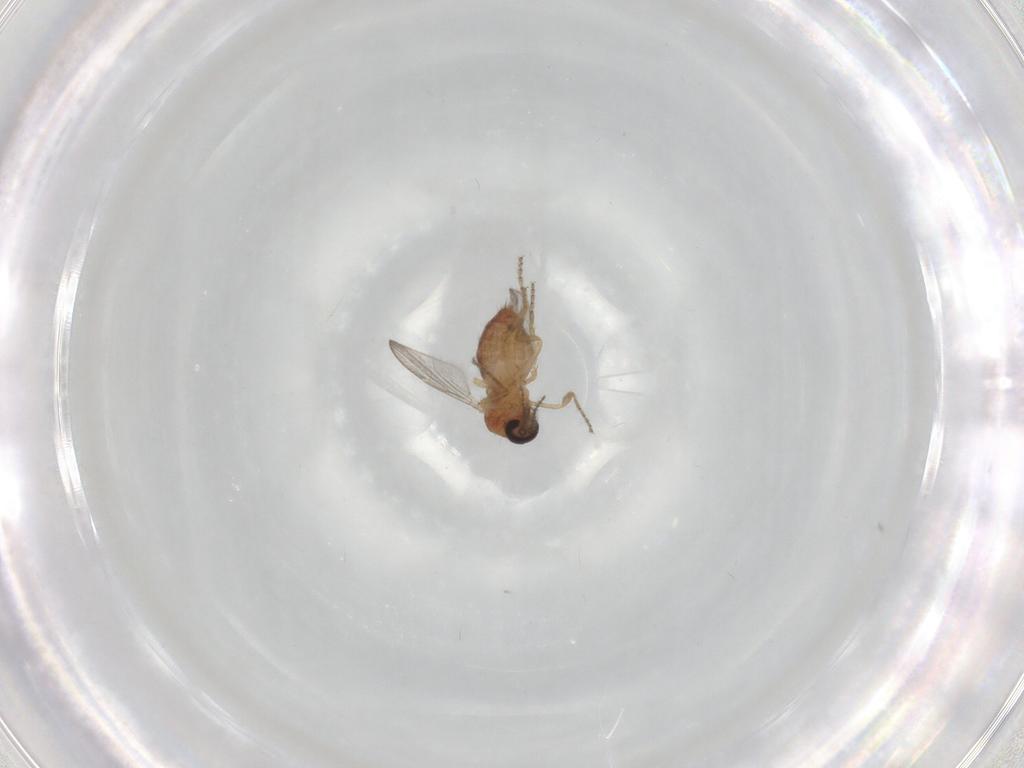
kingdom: Animalia
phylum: Arthropoda
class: Insecta
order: Diptera
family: Ceratopogonidae
